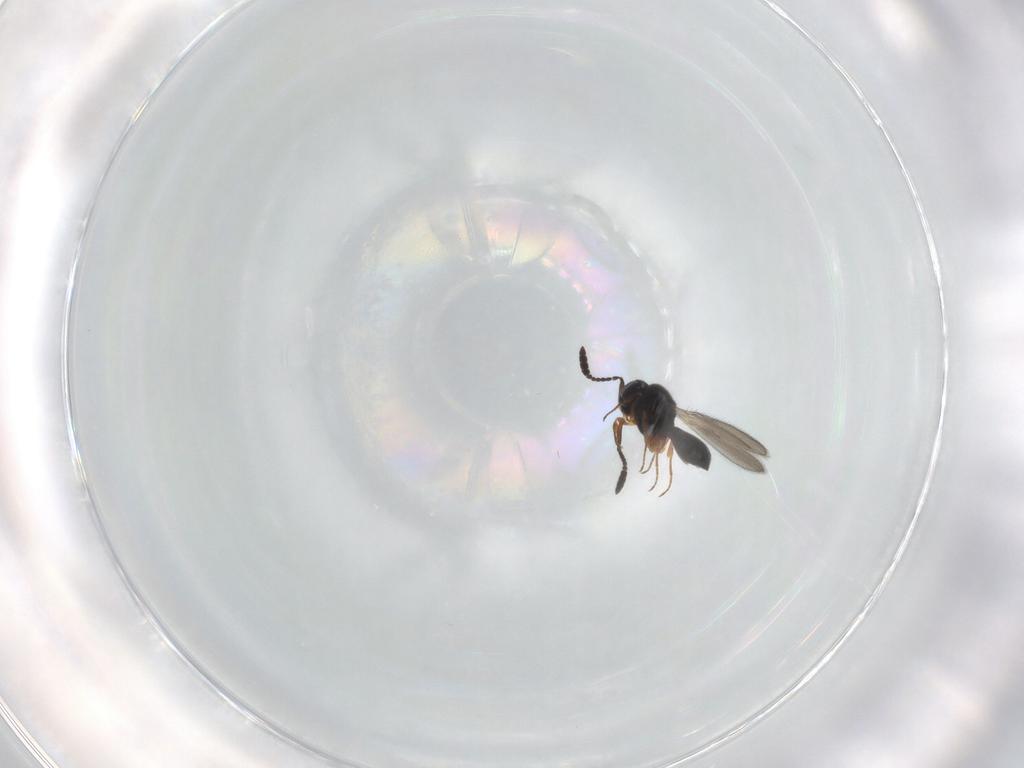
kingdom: Animalia
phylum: Arthropoda
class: Insecta
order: Hymenoptera
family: Scelionidae
